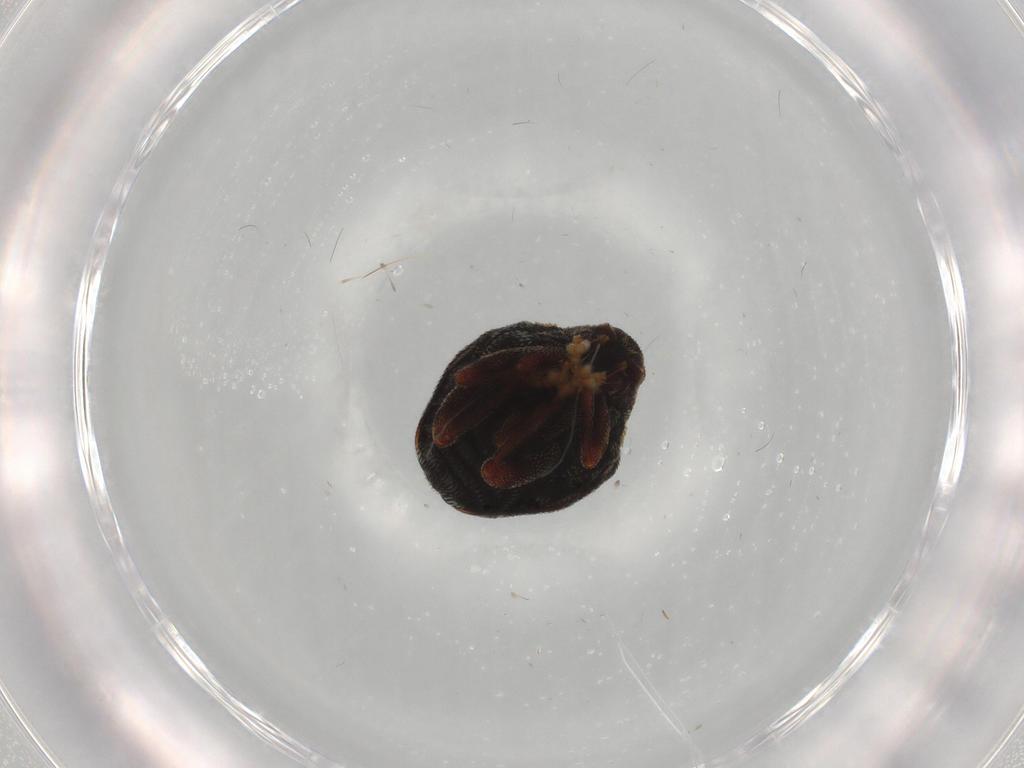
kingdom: Animalia
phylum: Arthropoda
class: Insecta
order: Coleoptera
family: Curculionidae
